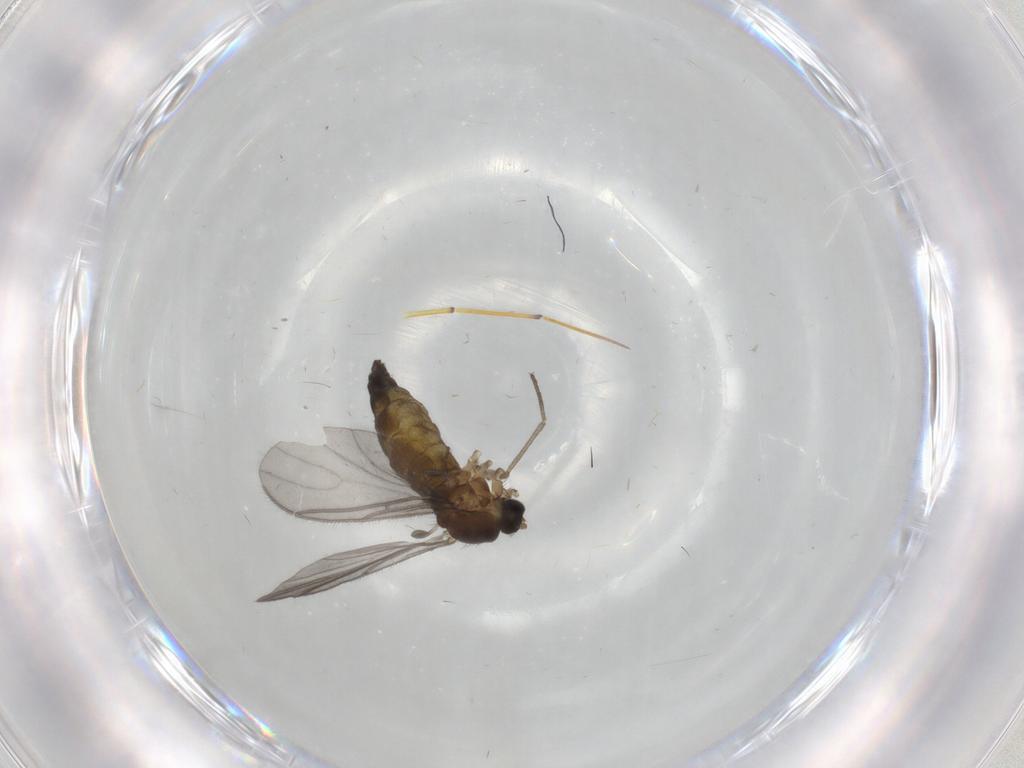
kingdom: Animalia
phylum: Arthropoda
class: Insecta
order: Diptera
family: Sciaridae
